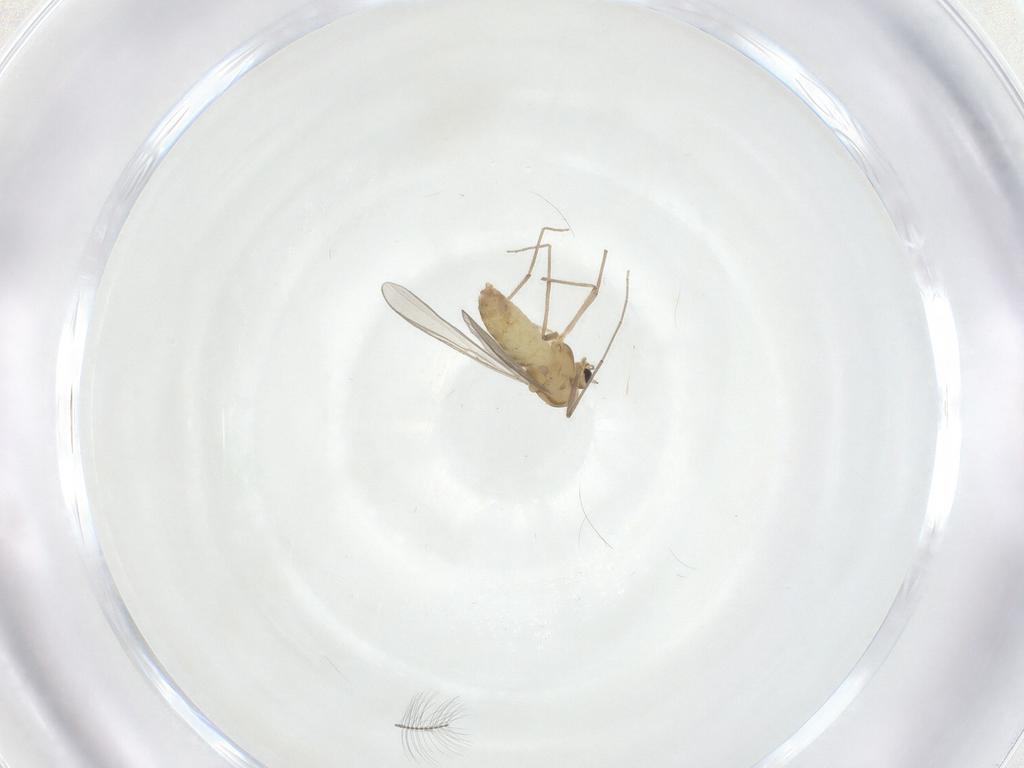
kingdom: Animalia
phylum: Arthropoda
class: Insecta
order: Diptera
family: Chironomidae
